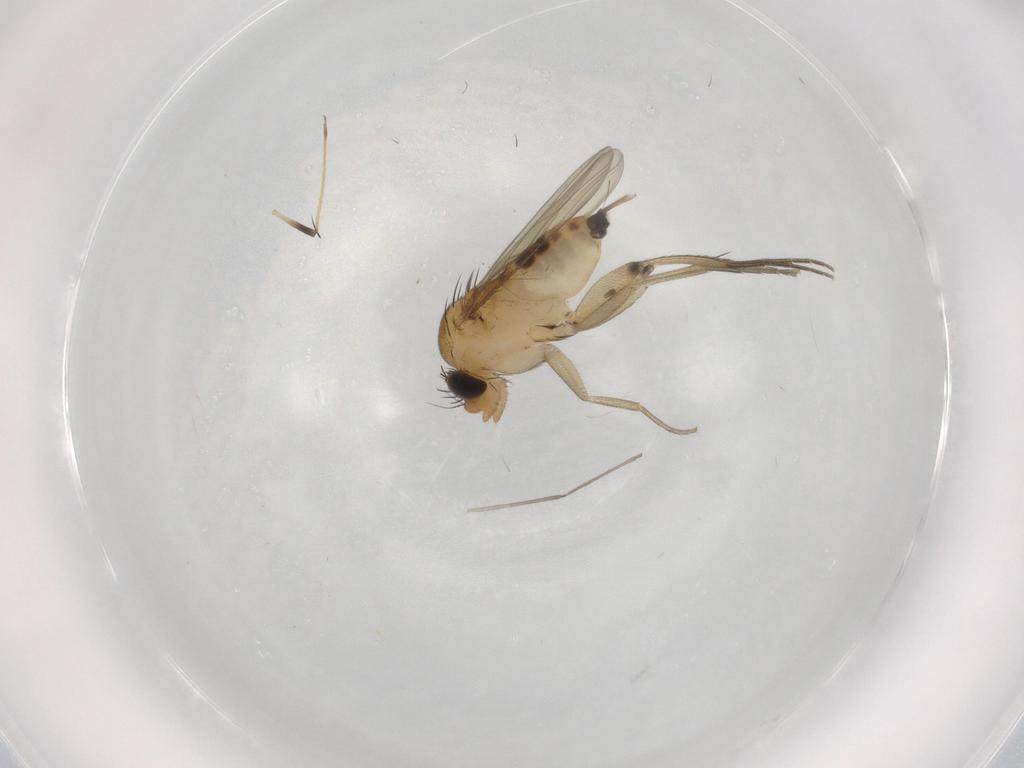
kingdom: Animalia
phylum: Arthropoda
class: Insecta
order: Diptera
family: Phoridae
